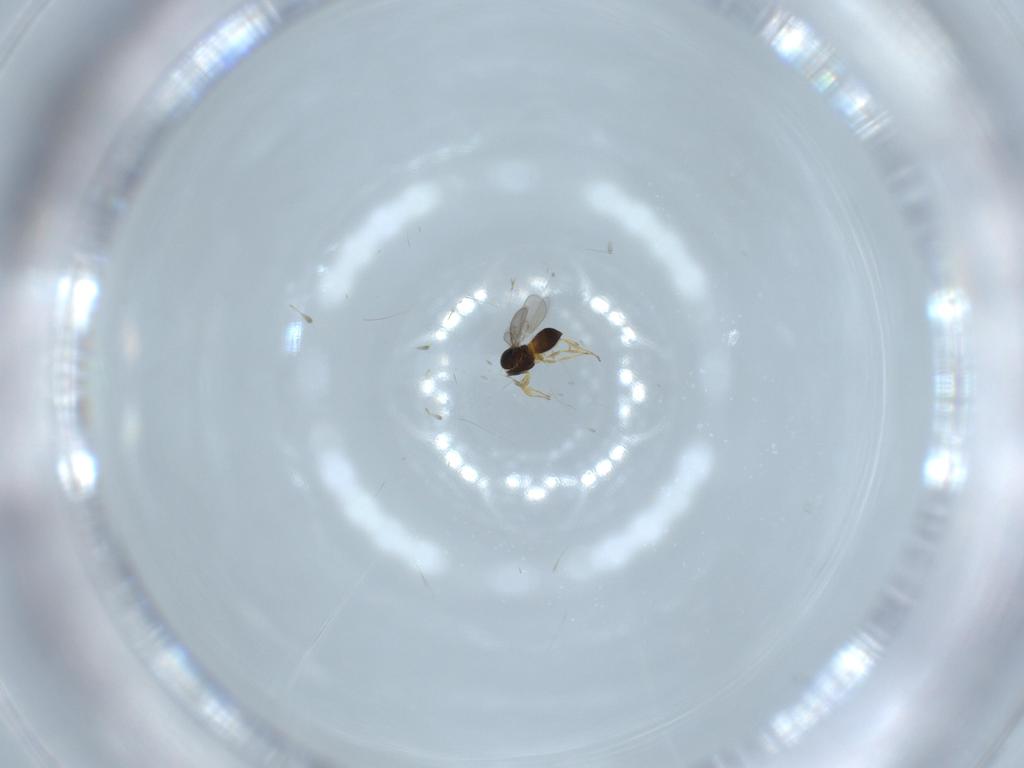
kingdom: Animalia
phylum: Arthropoda
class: Insecta
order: Hymenoptera
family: Scelionidae
